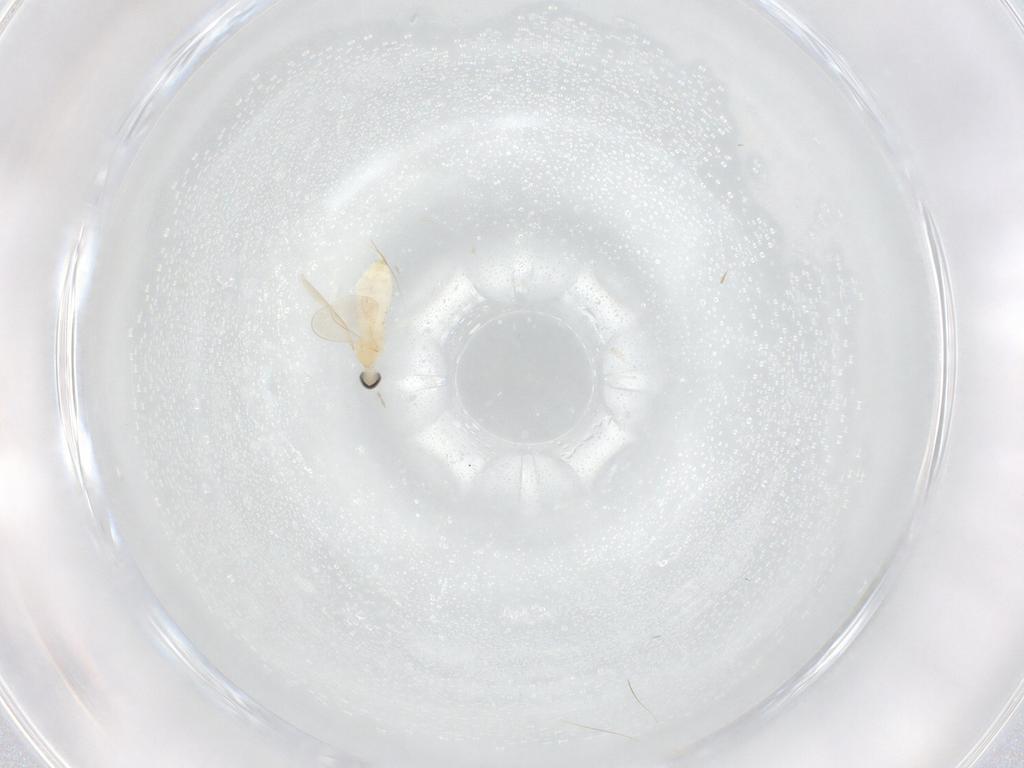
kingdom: Animalia
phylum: Arthropoda
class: Insecta
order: Diptera
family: Cecidomyiidae
